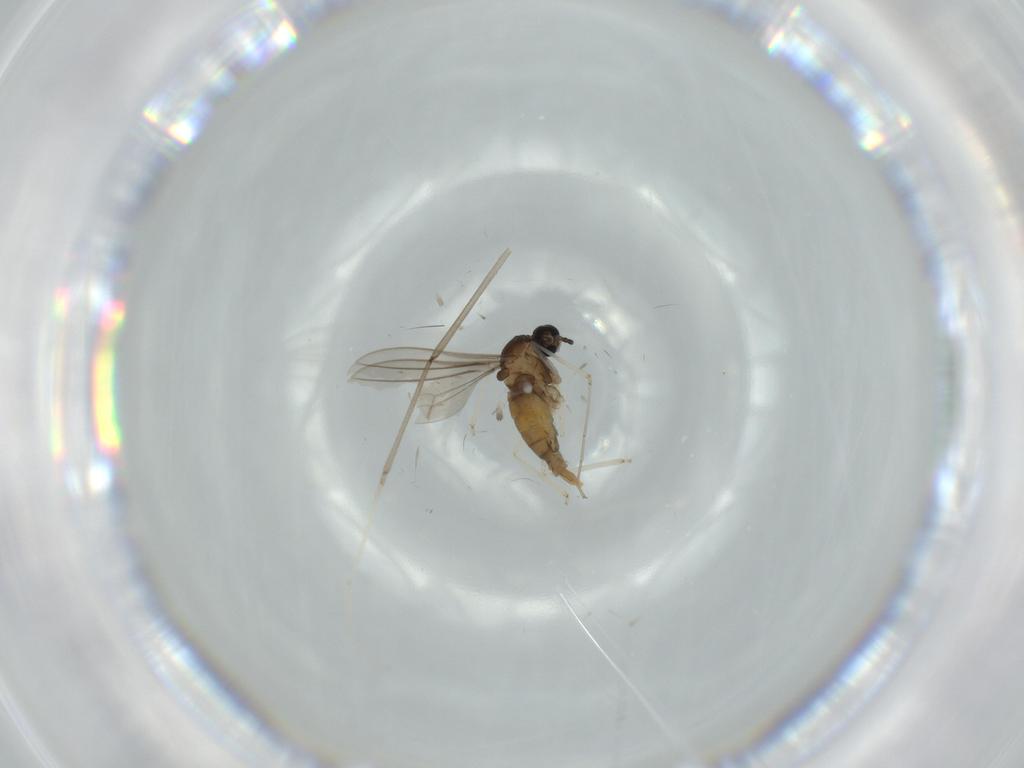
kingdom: Animalia
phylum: Arthropoda
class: Insecta
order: Diptera
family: Cecidomyiidae
